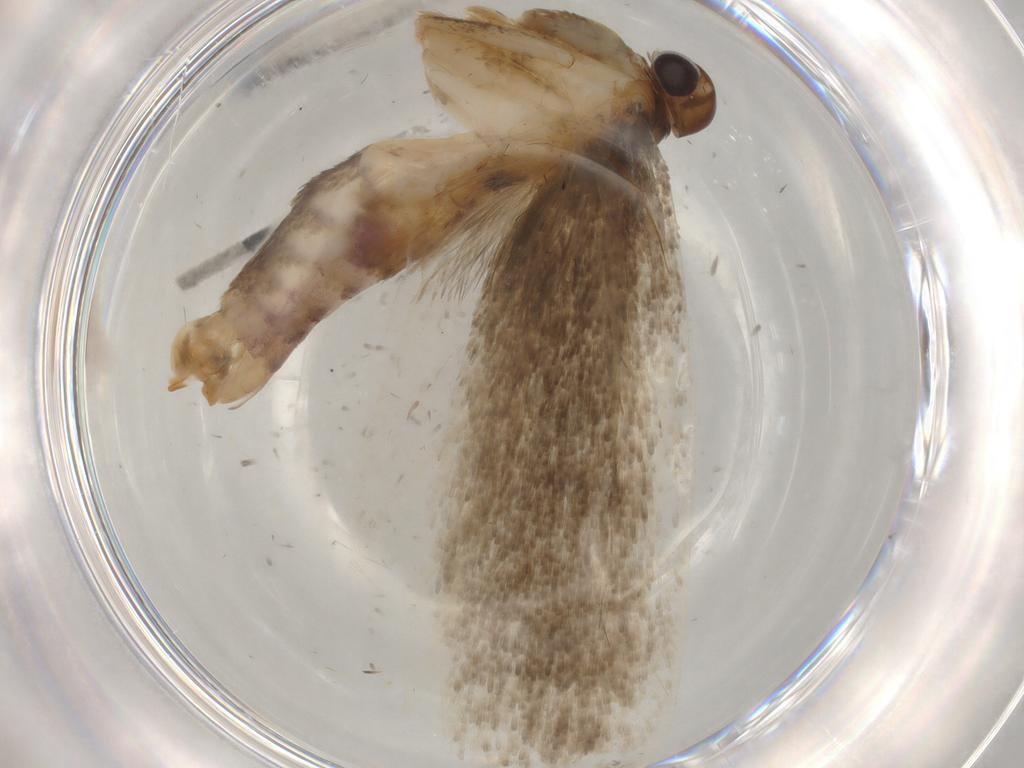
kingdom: Animalia
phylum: Arthropoda
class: Insecta
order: Lepidoptera
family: Gelechiidae
